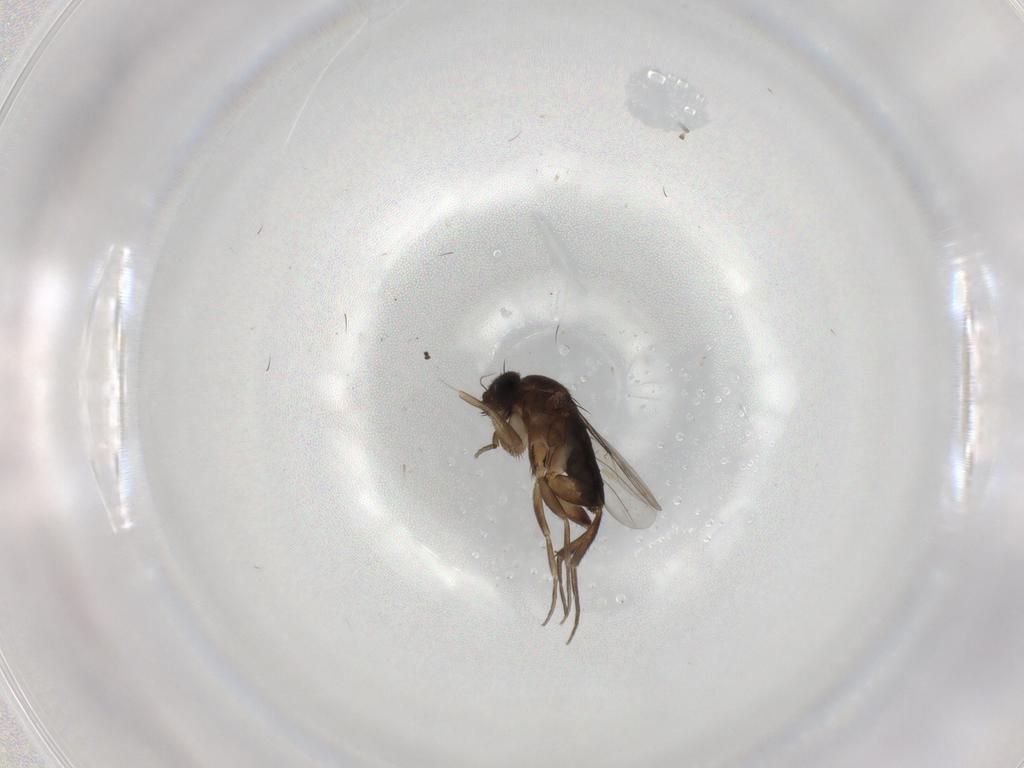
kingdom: Animalia
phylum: Arthropoda
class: Insecta
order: Diptera
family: Phoridae
